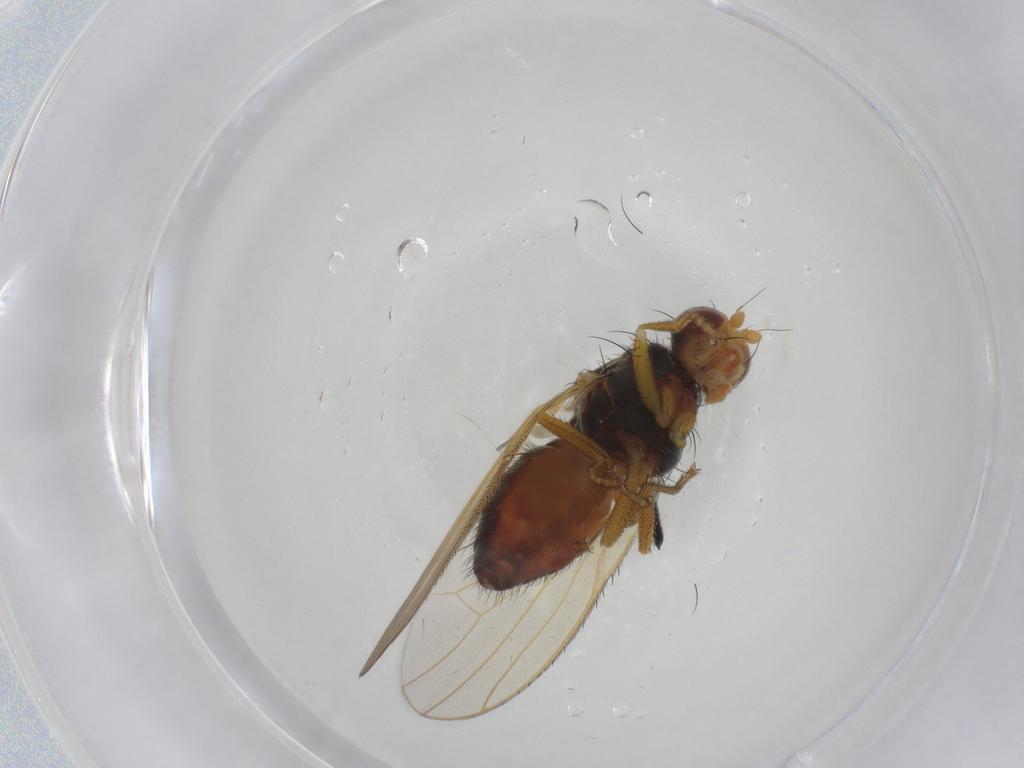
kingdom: Animalia
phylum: Arthropoda
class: Insecta
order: Diptera
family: Heleomyzidae
